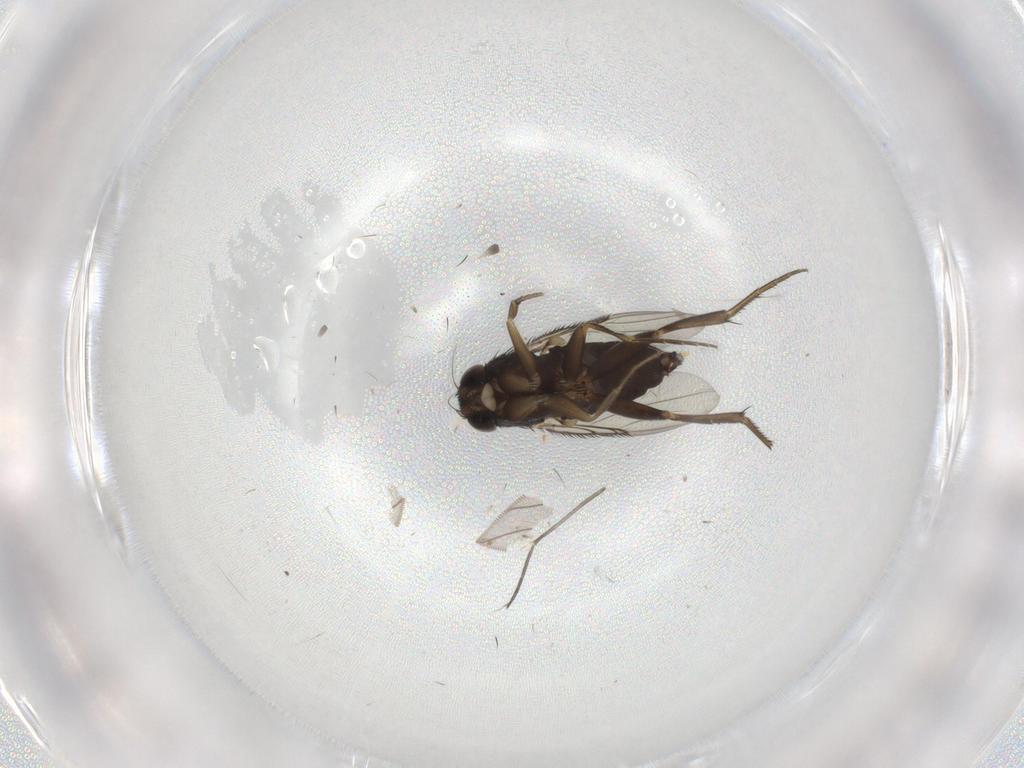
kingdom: Animalia
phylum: Arthropoda
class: Insecta
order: Diptera
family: Phoridae
